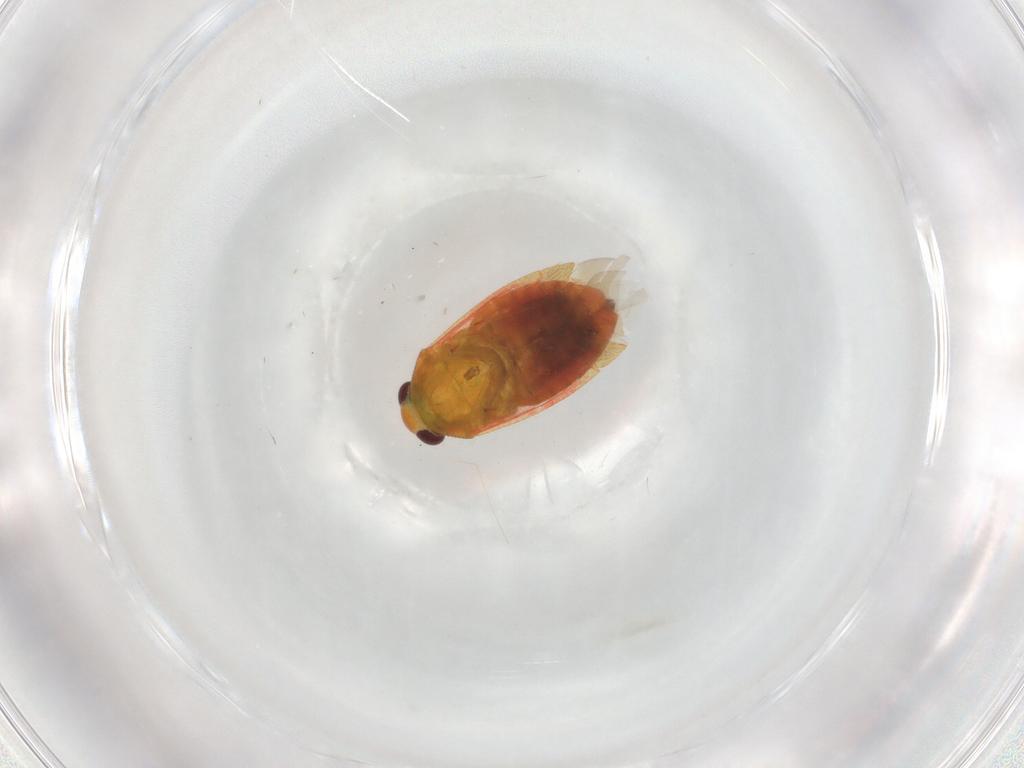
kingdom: Animalia
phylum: Arthropoda
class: Insecta
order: Hemiptera
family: Miridae
